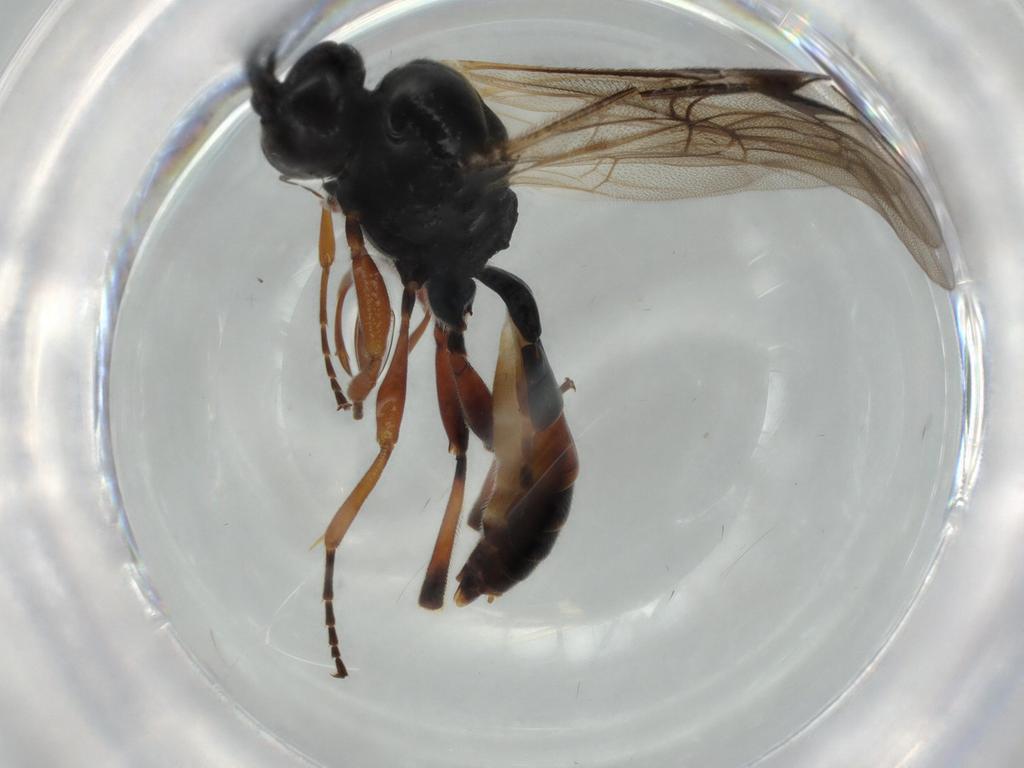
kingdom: Animalia
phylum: Arthropoda
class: Insecta
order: Hymenoptera
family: Ichneumonidae
